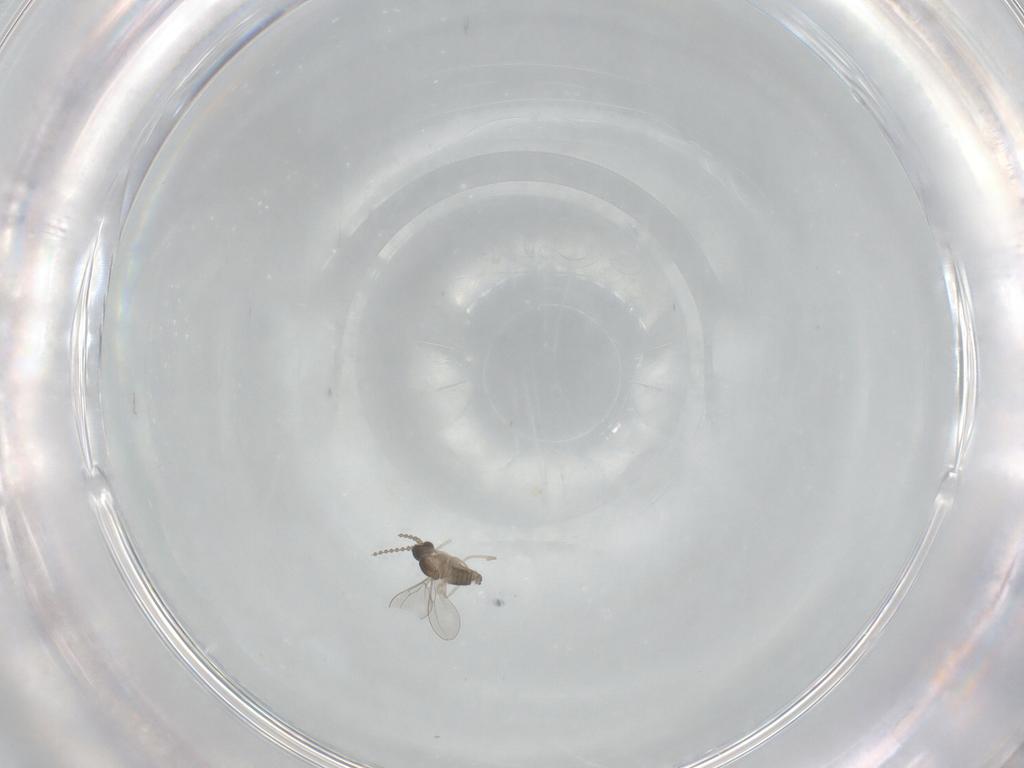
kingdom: Animalia
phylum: Arthropoda
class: Insecta
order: Diptera
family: Cecidomyiidae
